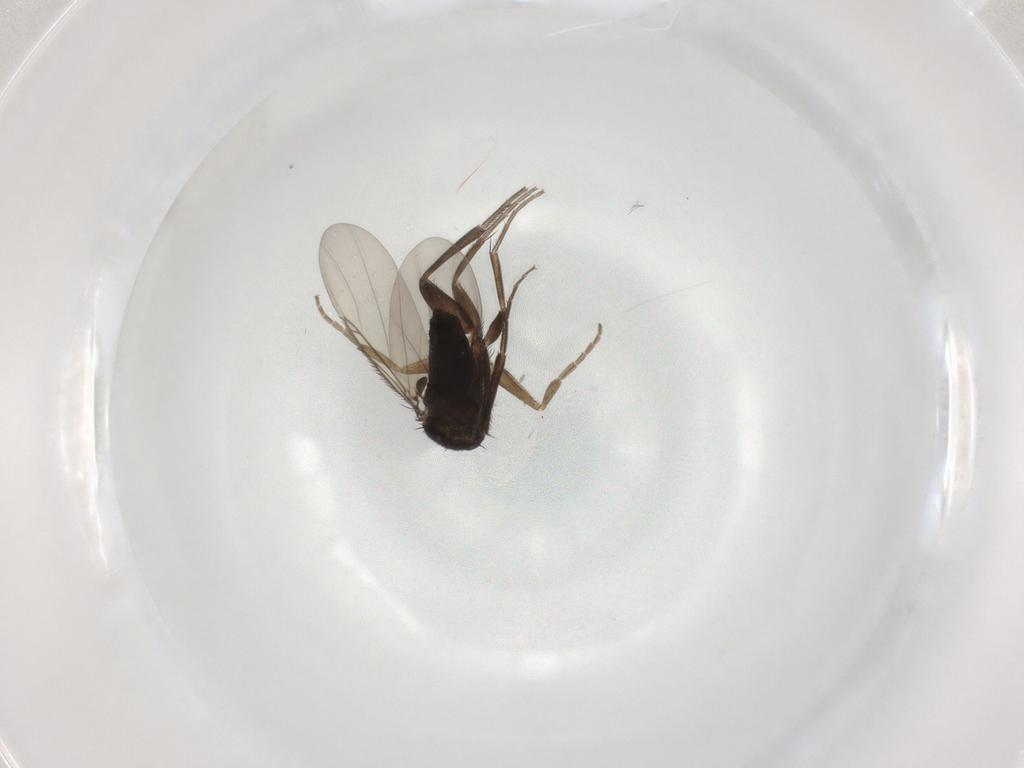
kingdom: Animalia
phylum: Arthropoda
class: Insecta
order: Diptera
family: Phoridae
